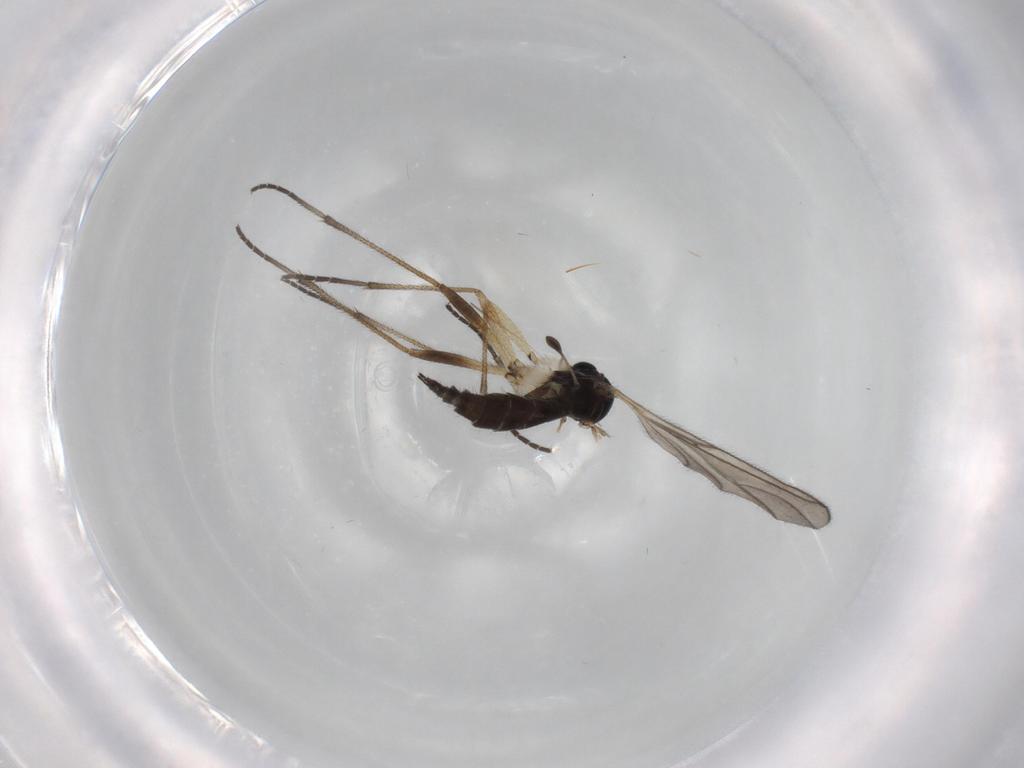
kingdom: Animalia
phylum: Arthropoda
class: Insecta
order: Diptera
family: Sciaridae
